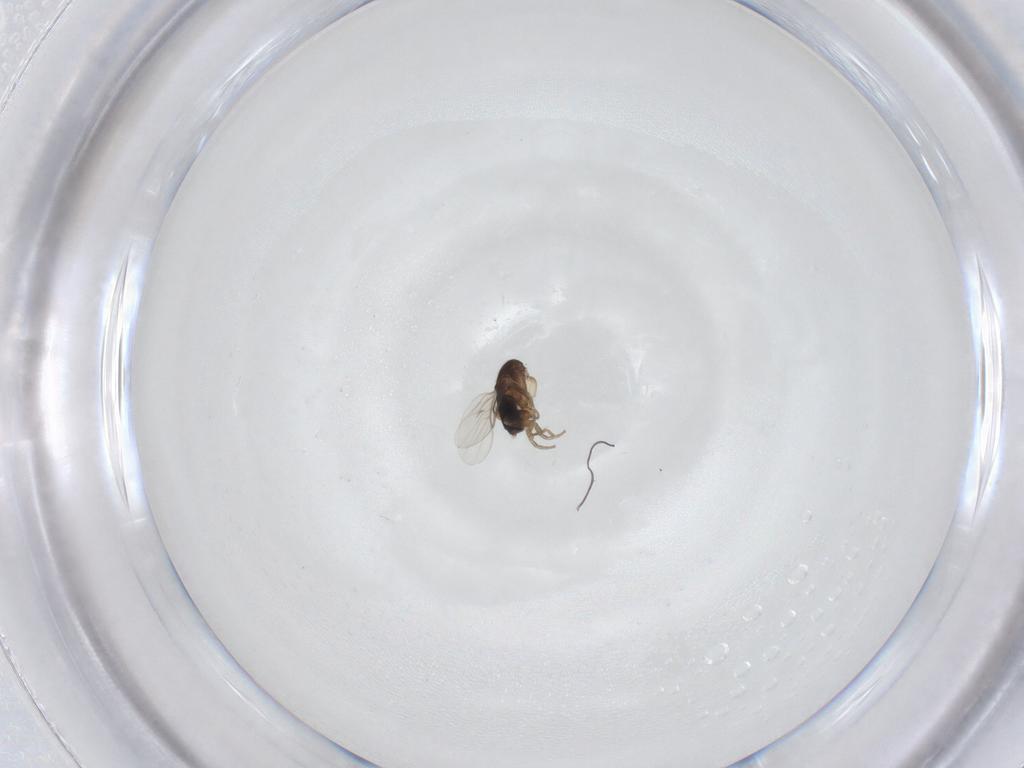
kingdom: Animalia
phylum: Arthropoda
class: Insecta
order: Diptera
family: Phoridae
